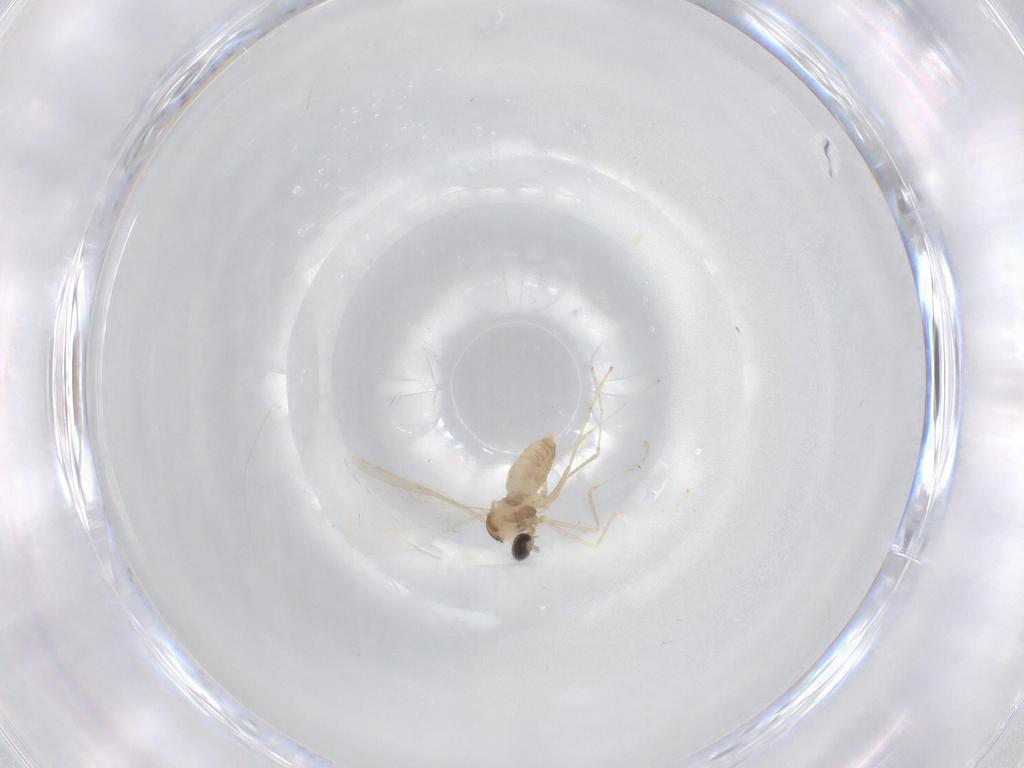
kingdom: Animalia
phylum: Arthropoda
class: Insecta
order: Diptera
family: Cecidomyiidae
